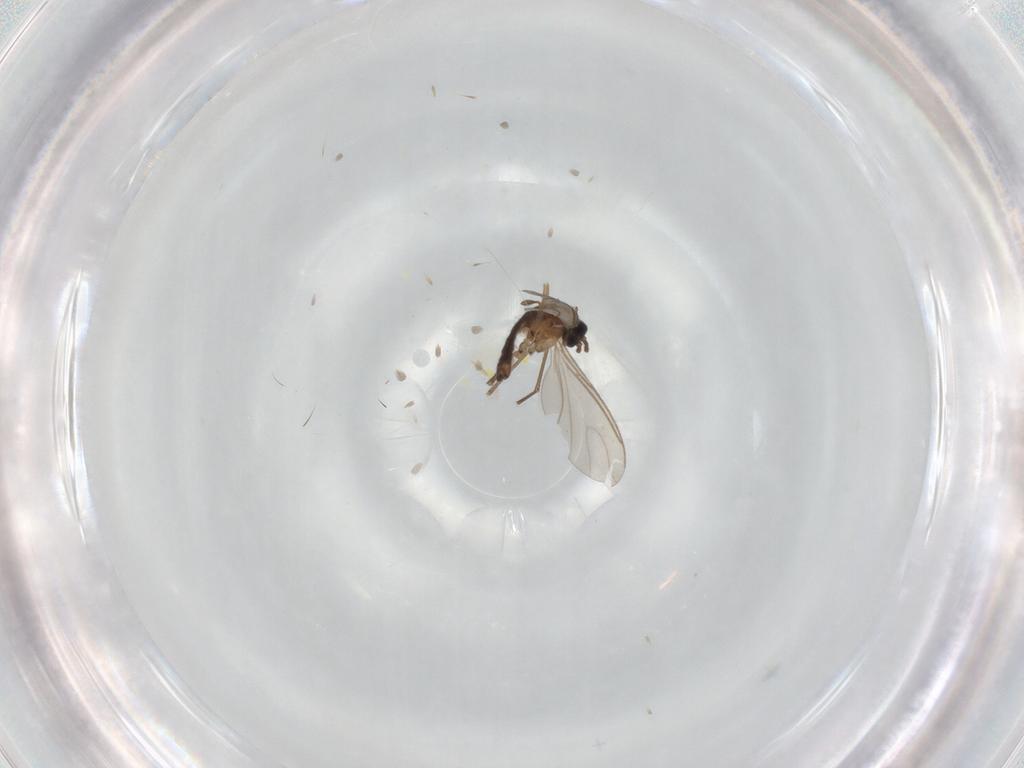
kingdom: Animalia
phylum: Arthropoda
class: Insecta
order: Diptera
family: Sciaridae
